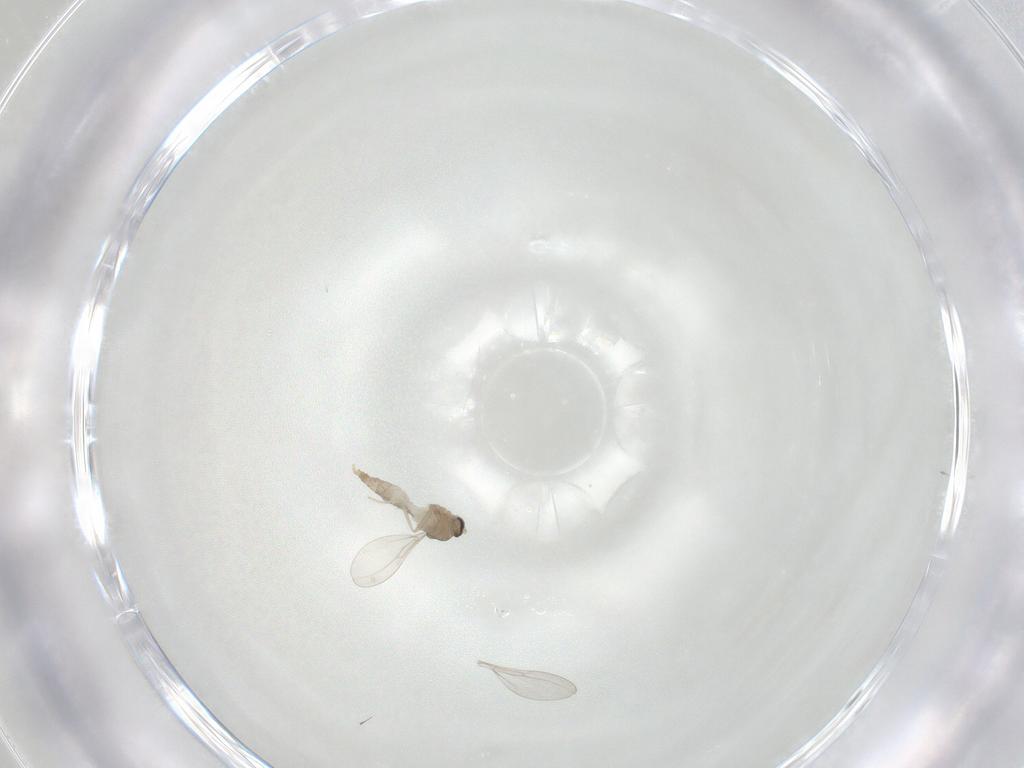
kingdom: Animalia
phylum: Arthropoda
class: Insecta
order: Diptera
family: Cecidomyiidae
